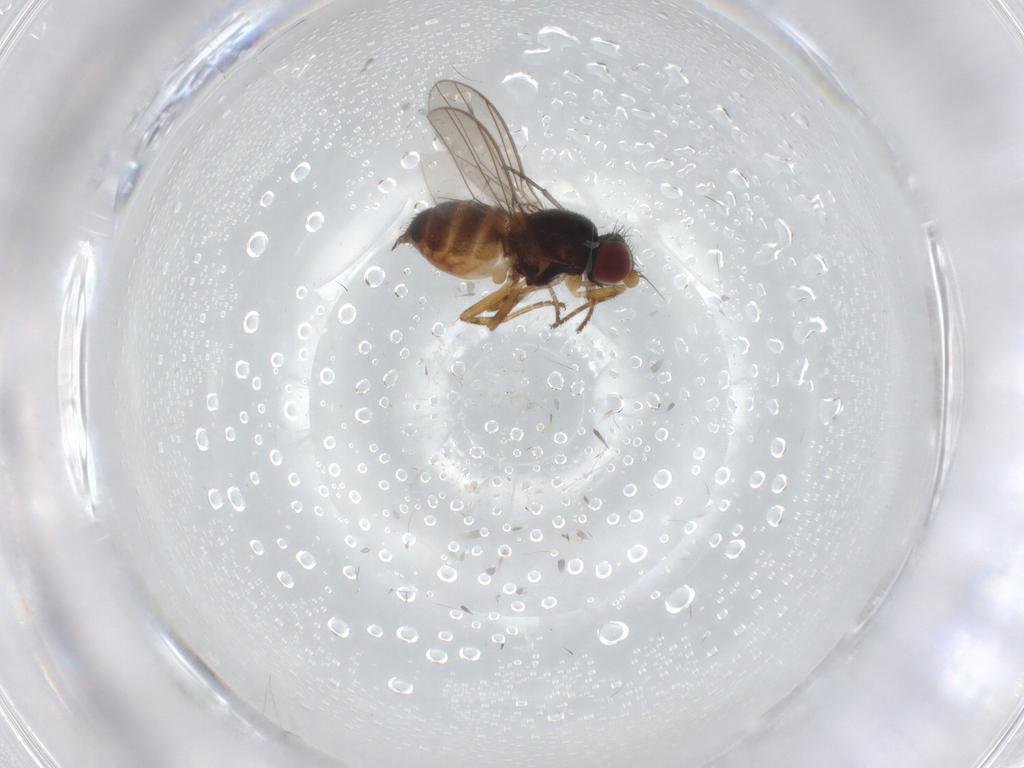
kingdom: Animalia
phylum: Arthropoda
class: Insecta
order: Diptera
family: Chloropidae
